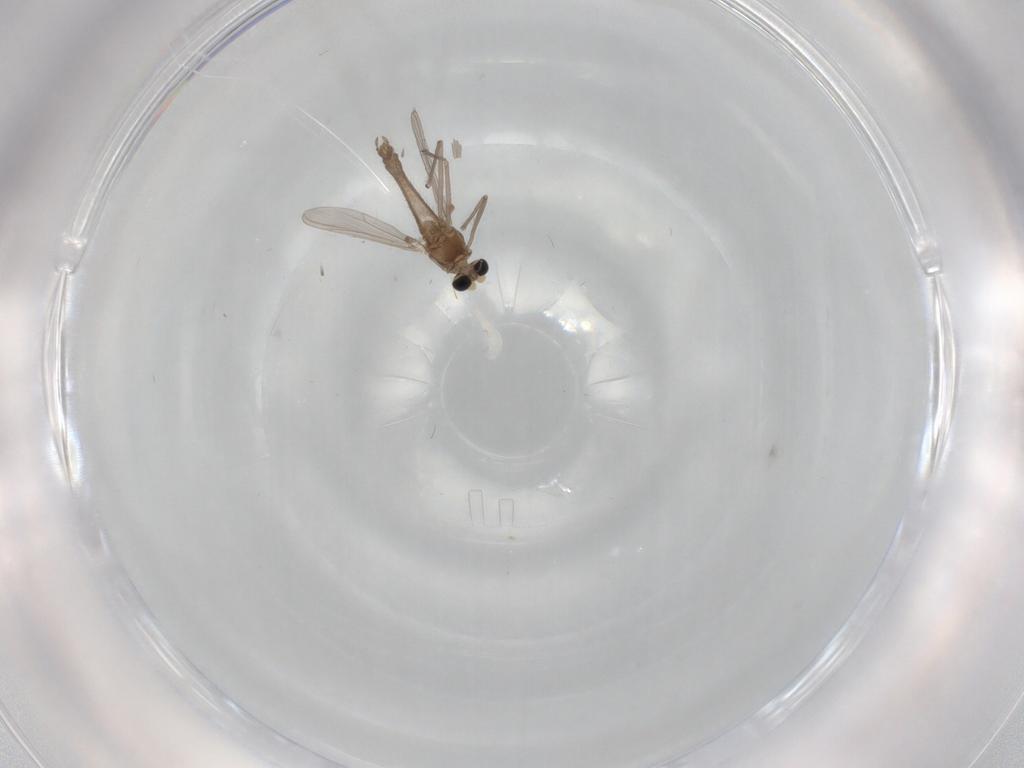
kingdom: Animalia
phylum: Arthropoda
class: Insecta
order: Diptera
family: Chironomidae
